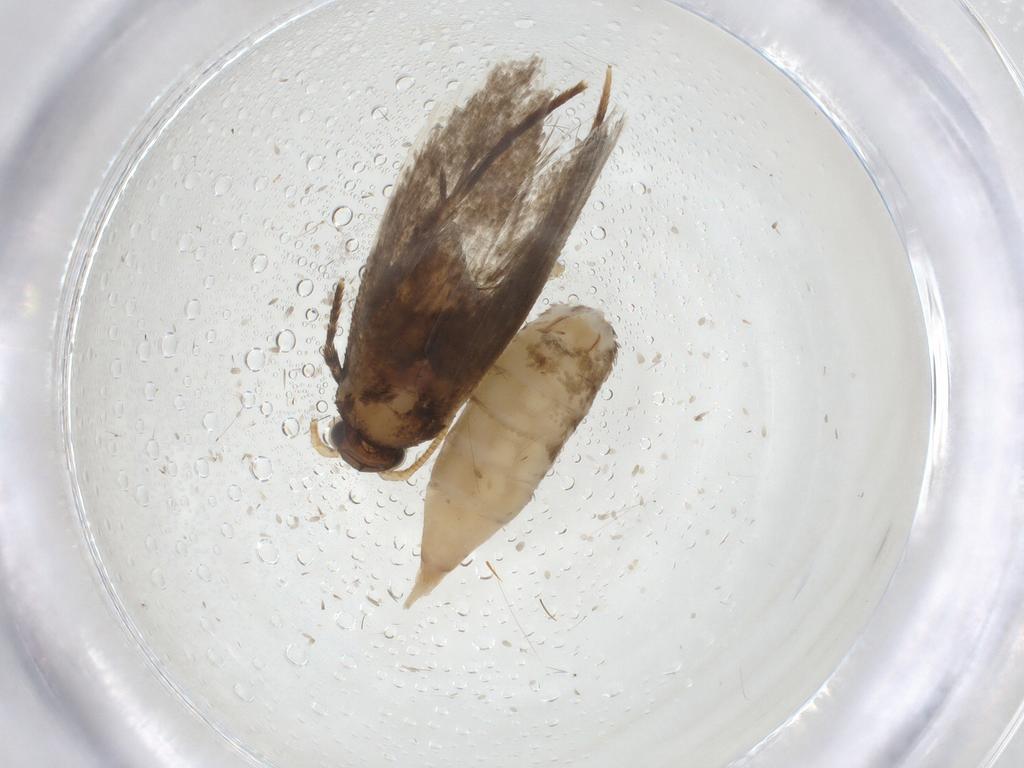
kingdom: Animalia
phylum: Arthropoda
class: Insecta
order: Lepidoptera
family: Tineidae
